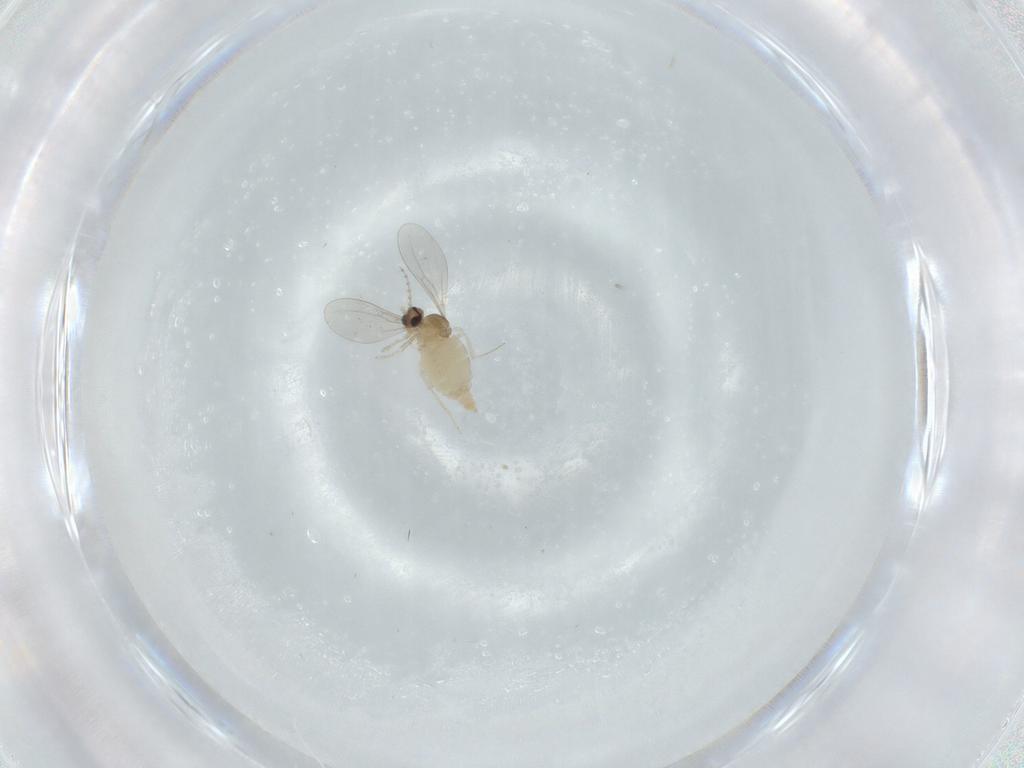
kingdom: Animalia
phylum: Arthropoda
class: Insecta
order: Diptera
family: Cecidomyiidae
